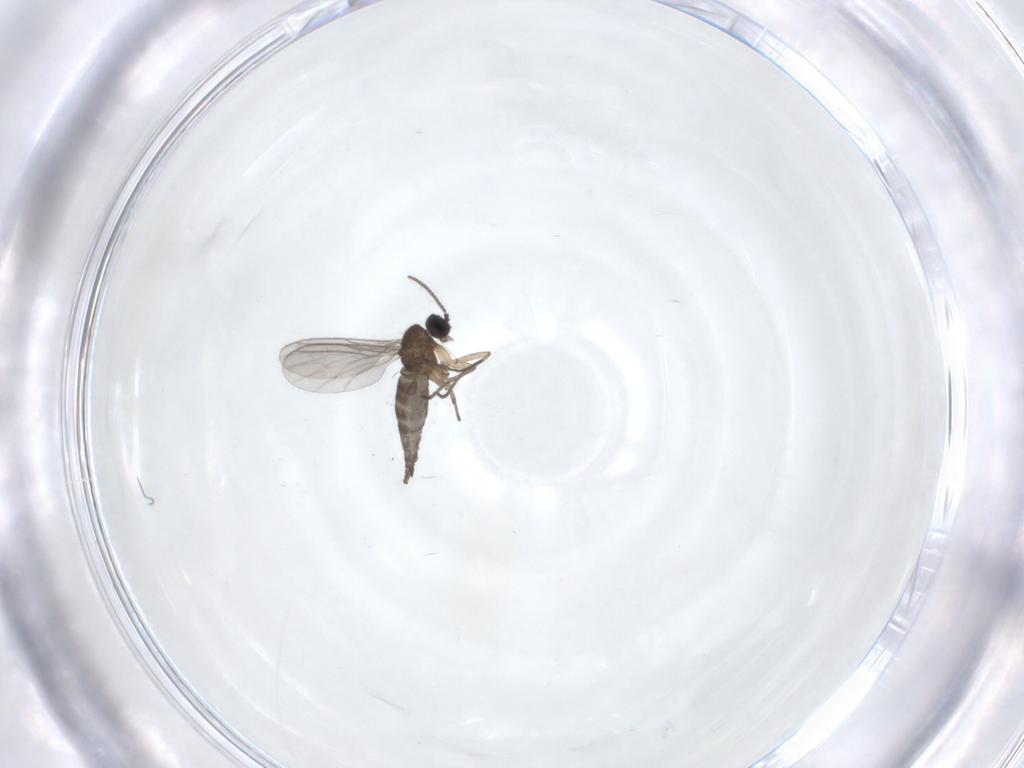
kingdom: Animalia
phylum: Arthropoda
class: Insecta
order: Diptera
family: Sciaridae
